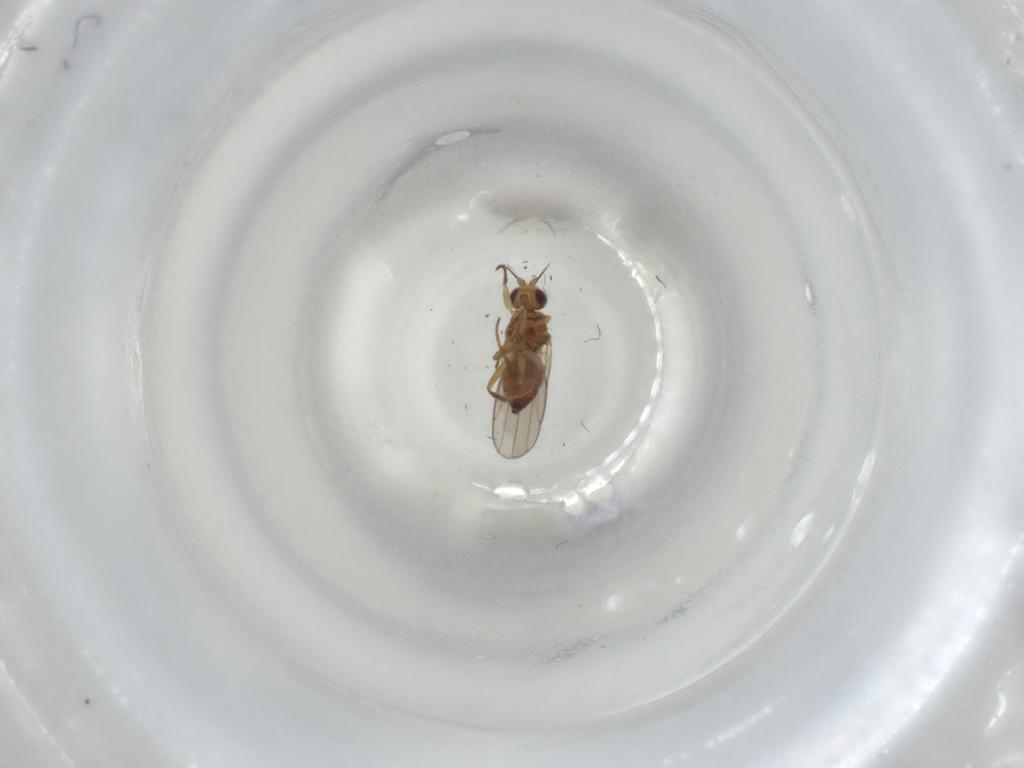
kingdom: Animalia
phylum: Arthropoda
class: Insecta
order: Diptera
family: Chloropidae
